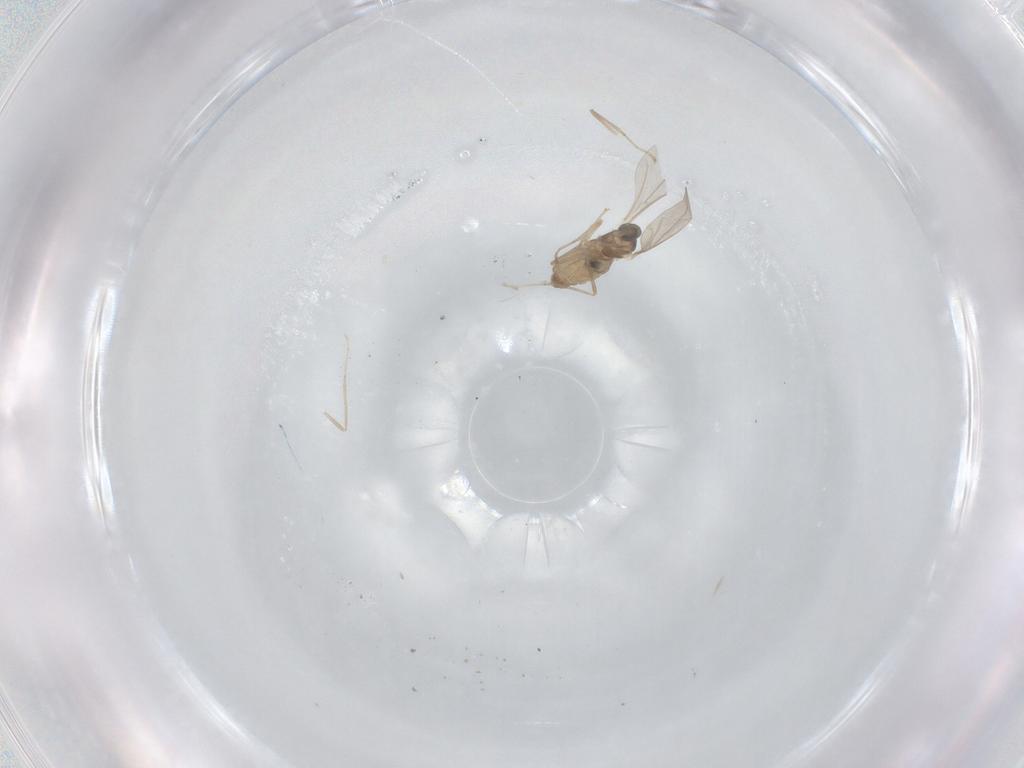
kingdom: Animalia
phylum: Arthropoda
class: Insecta
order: Diptera
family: Cecidomyiidae
